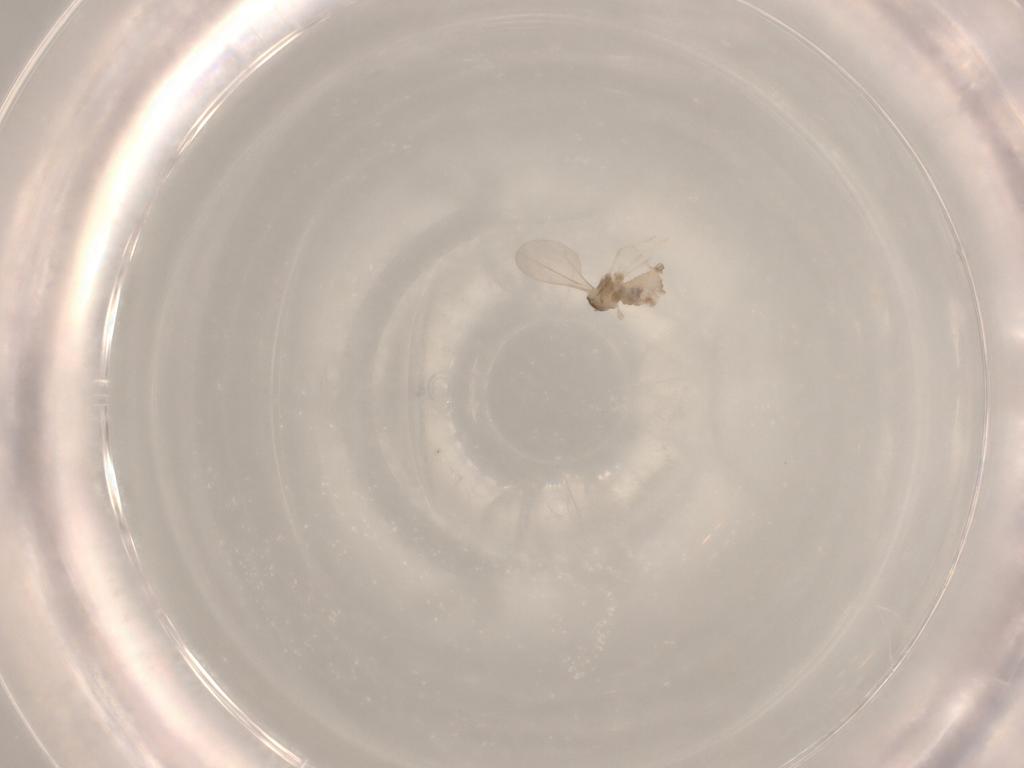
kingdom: Animalia
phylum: Arthropoda
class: Insecta
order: Diptera
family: Cecidomyiidae
